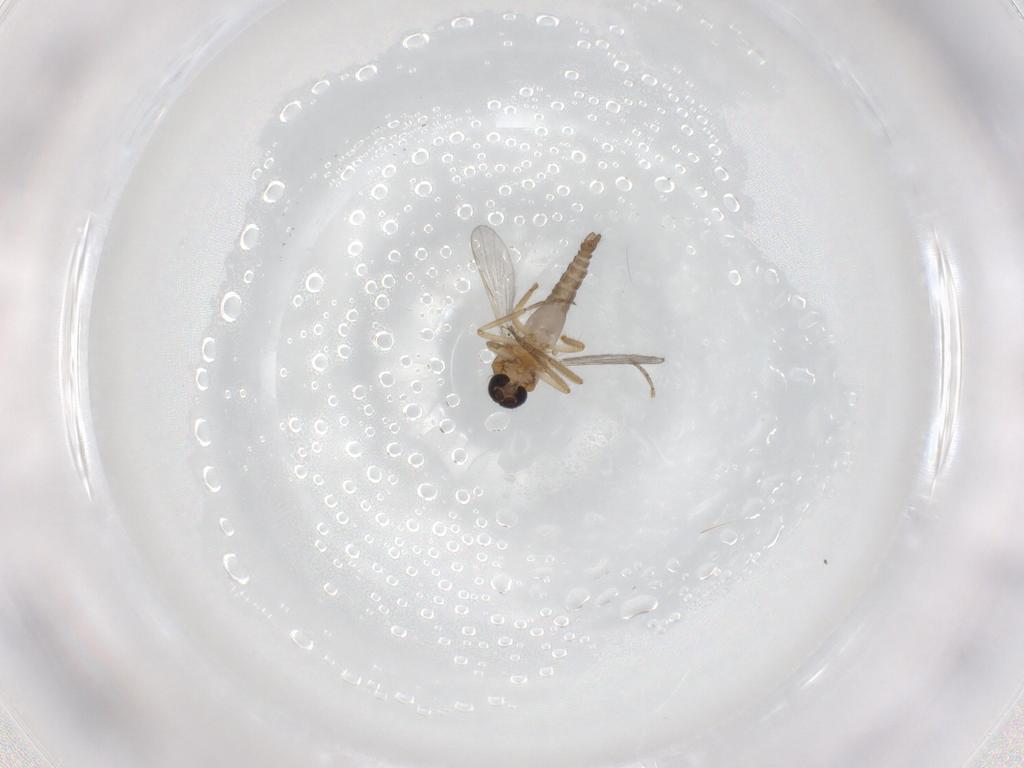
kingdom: Animalia
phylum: Arthropoda
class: Insecta
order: Diptera
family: Ceratopogonidae
